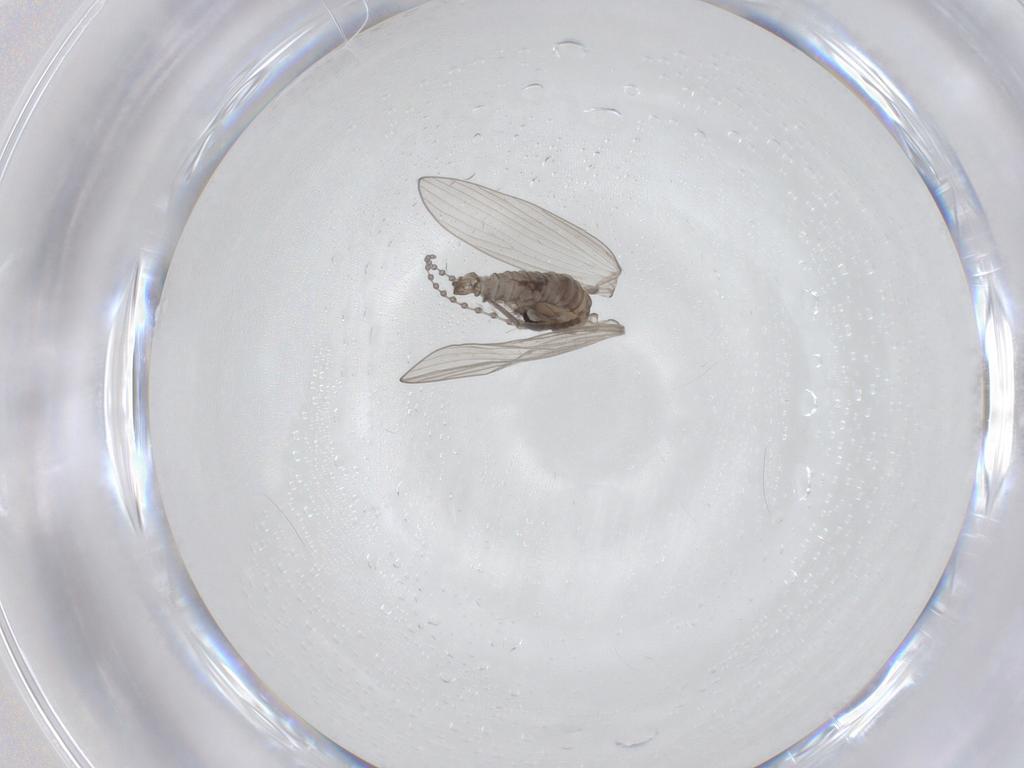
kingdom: Animalia
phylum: Arthropoda
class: Insecta
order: Diptera
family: Psychodidae
